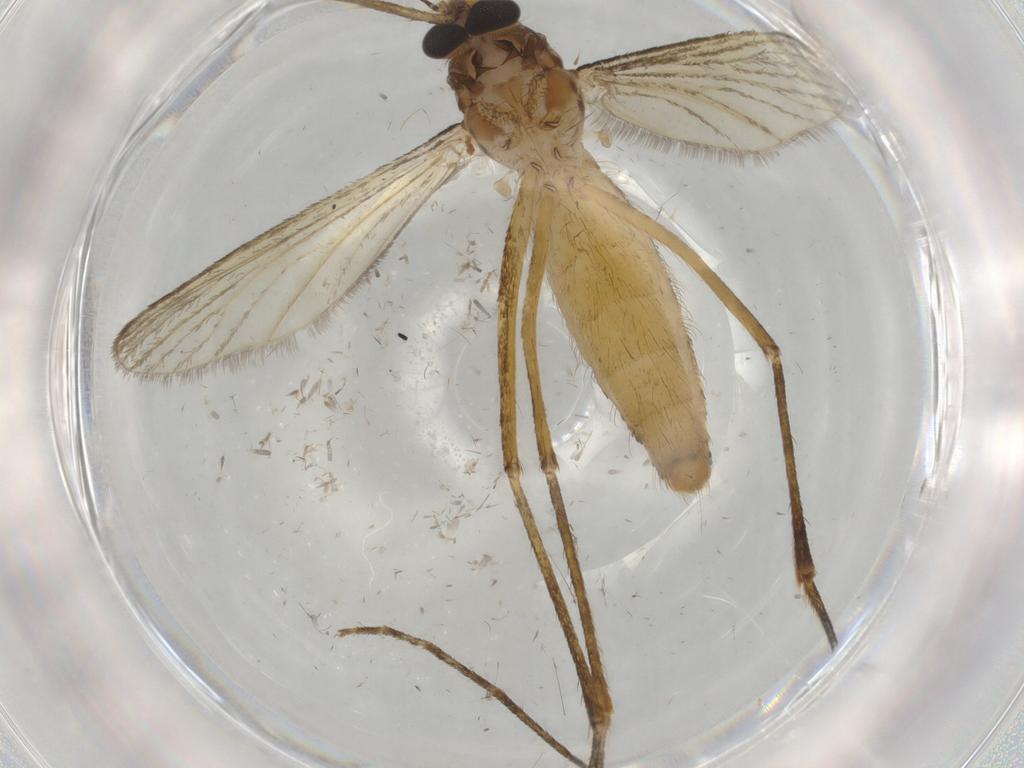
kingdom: Animalia
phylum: Arthropoda
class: Insecta
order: Diptera
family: Culicidae
